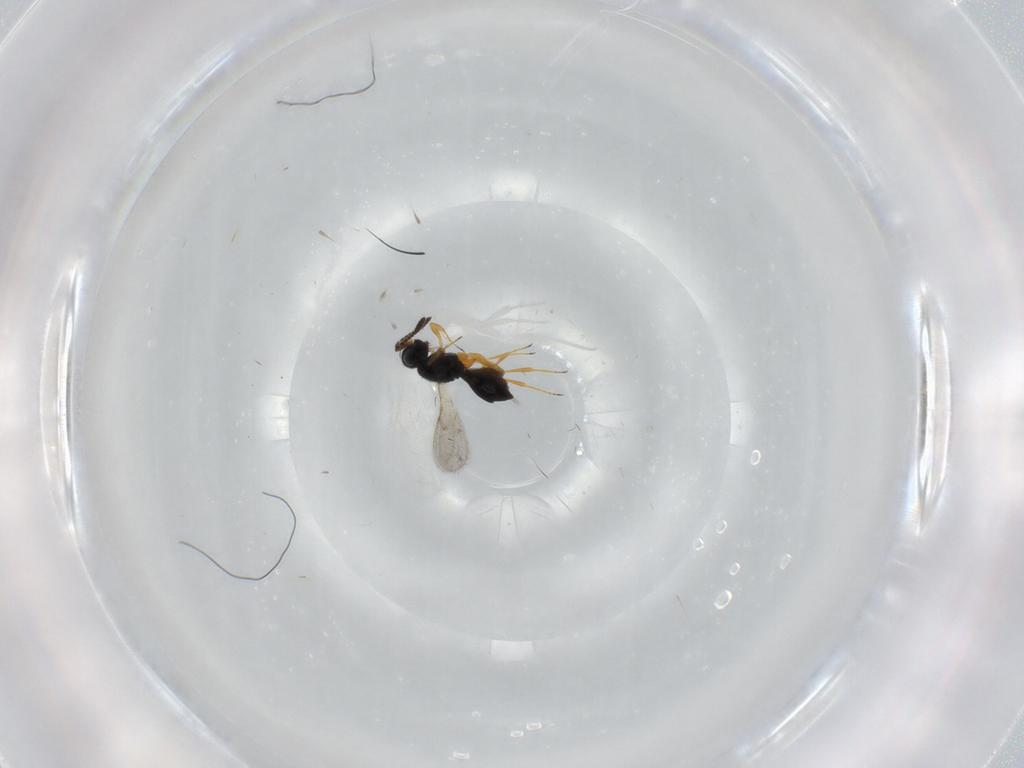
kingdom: Animalia
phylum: Arthropoda
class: Insecta
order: Hymenoptera
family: Scelionidae
